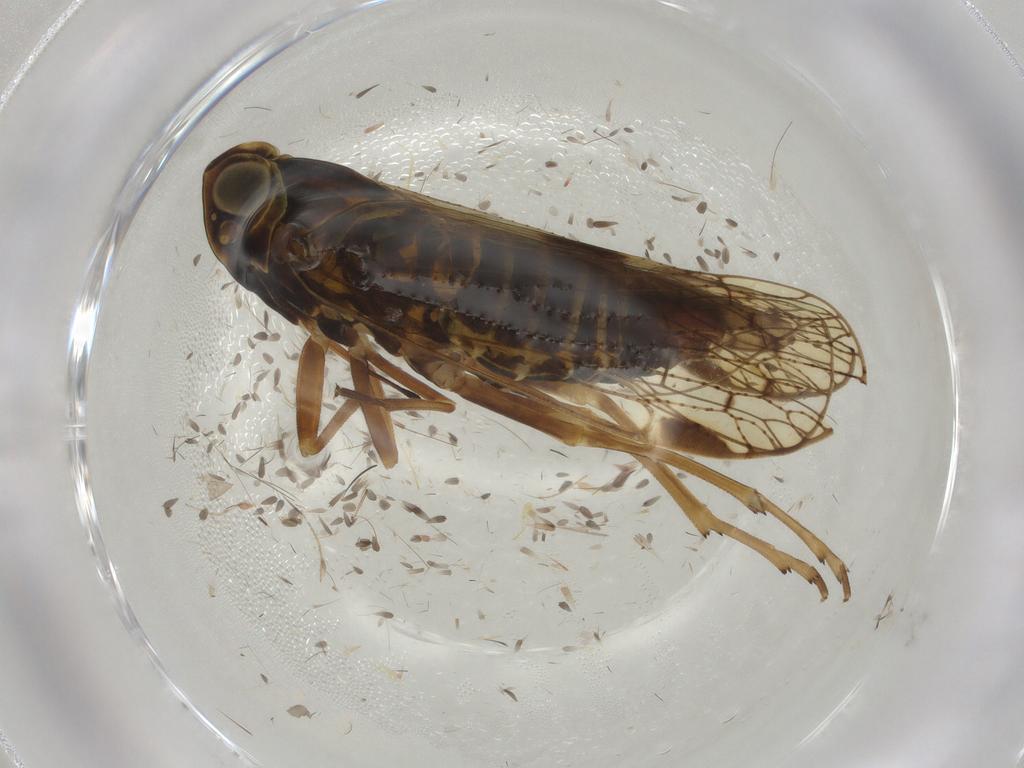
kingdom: Animalia
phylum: Arthropoda
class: Insecta
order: Hemiptera
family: Cixiidae
